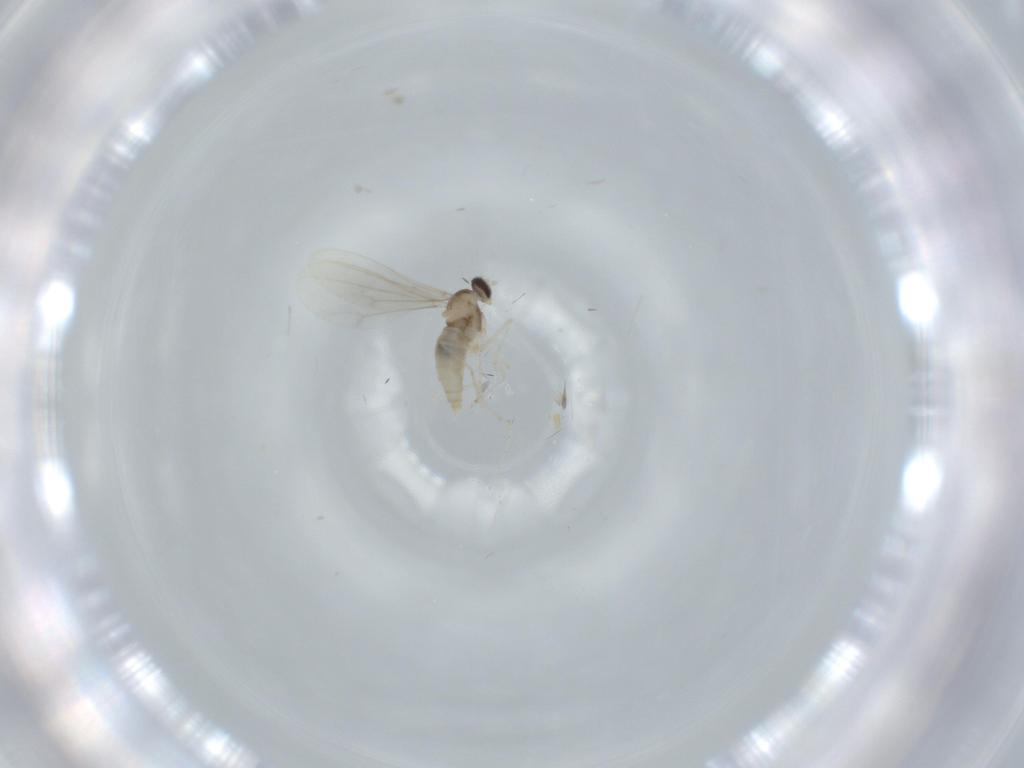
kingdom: Animalia
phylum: Arthropoda
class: Insecta
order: Diptera
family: Cecidomyiidae
